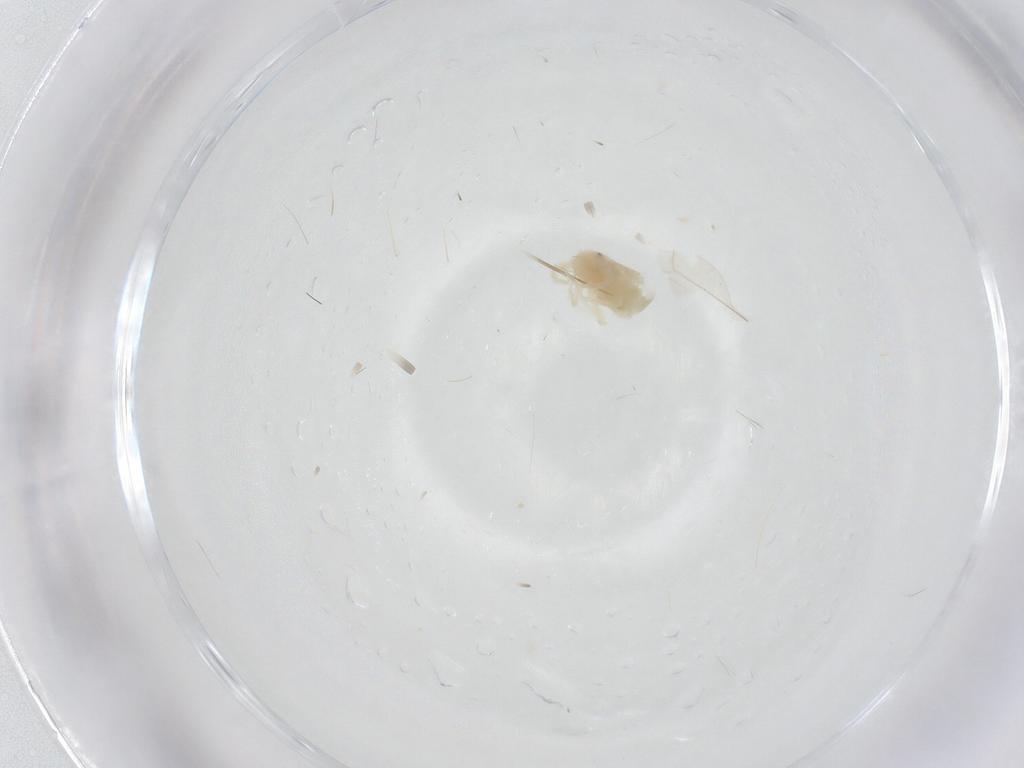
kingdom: Animalia
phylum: Arthropoda
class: Arachnida
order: Trombidiformes
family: Anystidae
